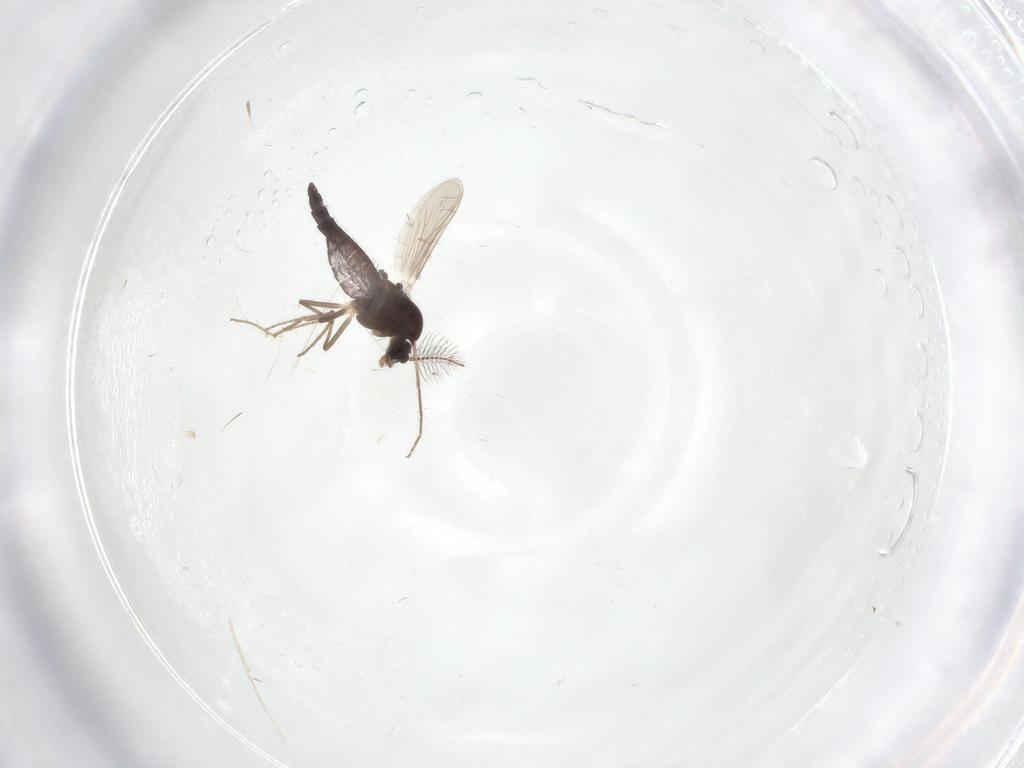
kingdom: Animalia
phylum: Arthropoda
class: Insecta
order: Diptera
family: Chironomidae
